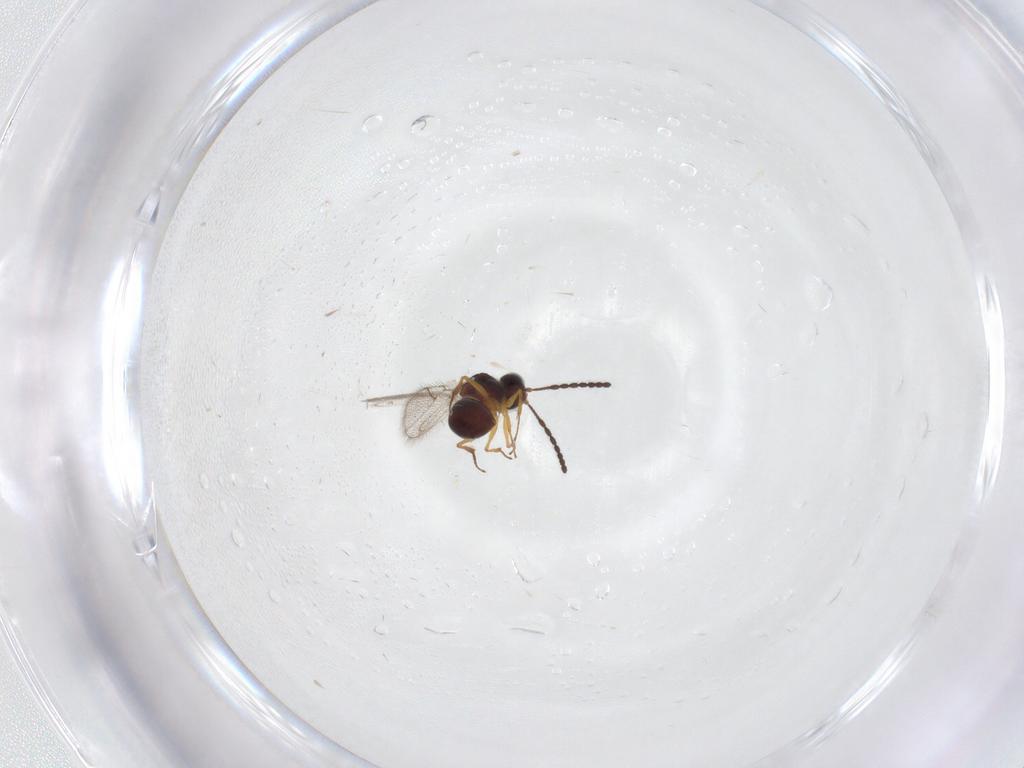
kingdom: Animalia
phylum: Arthropoda
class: Insecta
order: Hymenoptera
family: Figitidae
